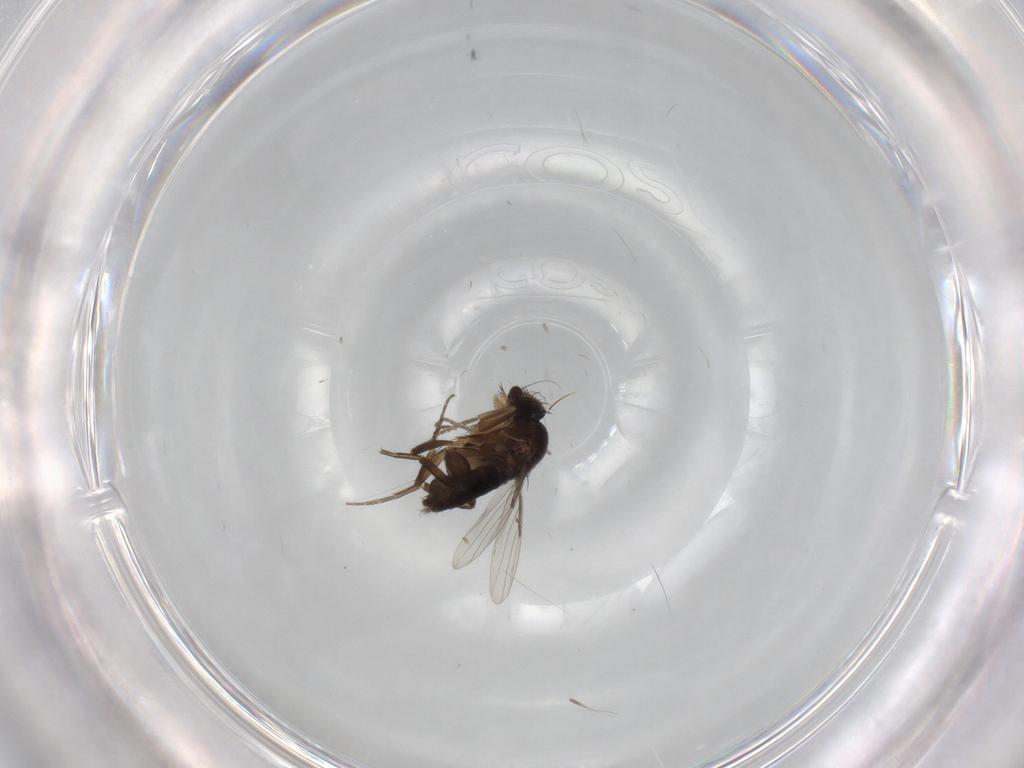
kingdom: Animalia
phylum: Arthropoda
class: Insecta
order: Diptera
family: Phoridae
